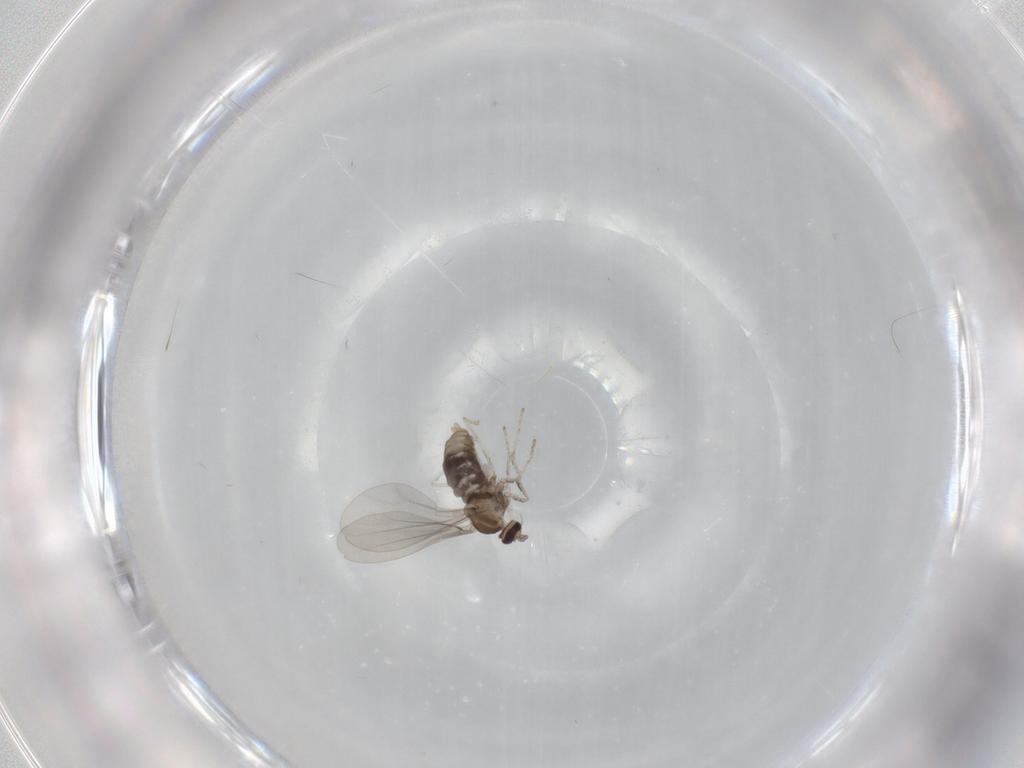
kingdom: Animalia
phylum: Arthropoda
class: Insecta
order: Diptera
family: Cecidomyiidae
